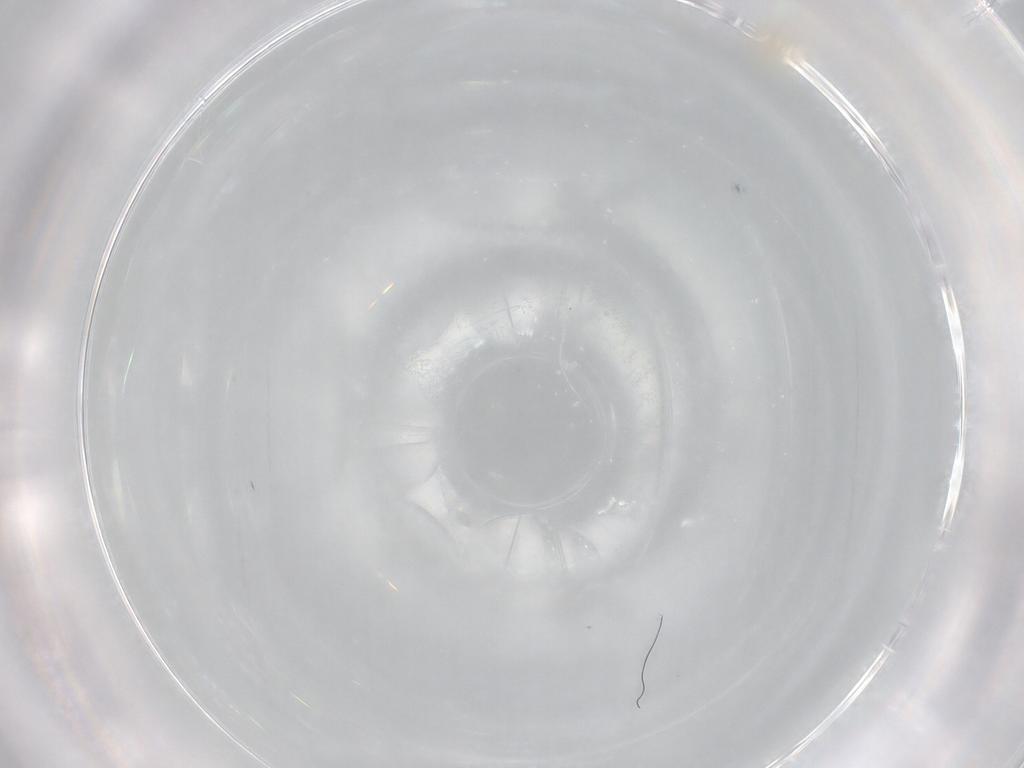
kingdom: Animalia
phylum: Arthropoda
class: Copepoda
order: Calanoida
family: Diaptomidae
